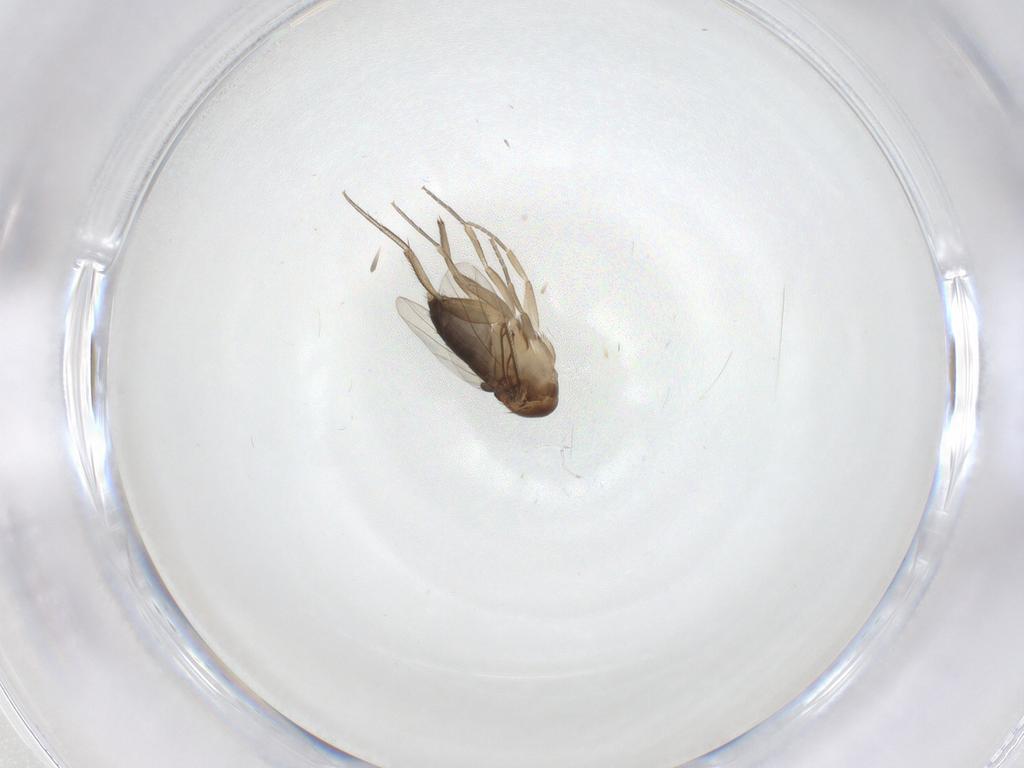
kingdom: Animalia
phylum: Arthropoda
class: Insecta
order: Diptera
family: Phoridae
